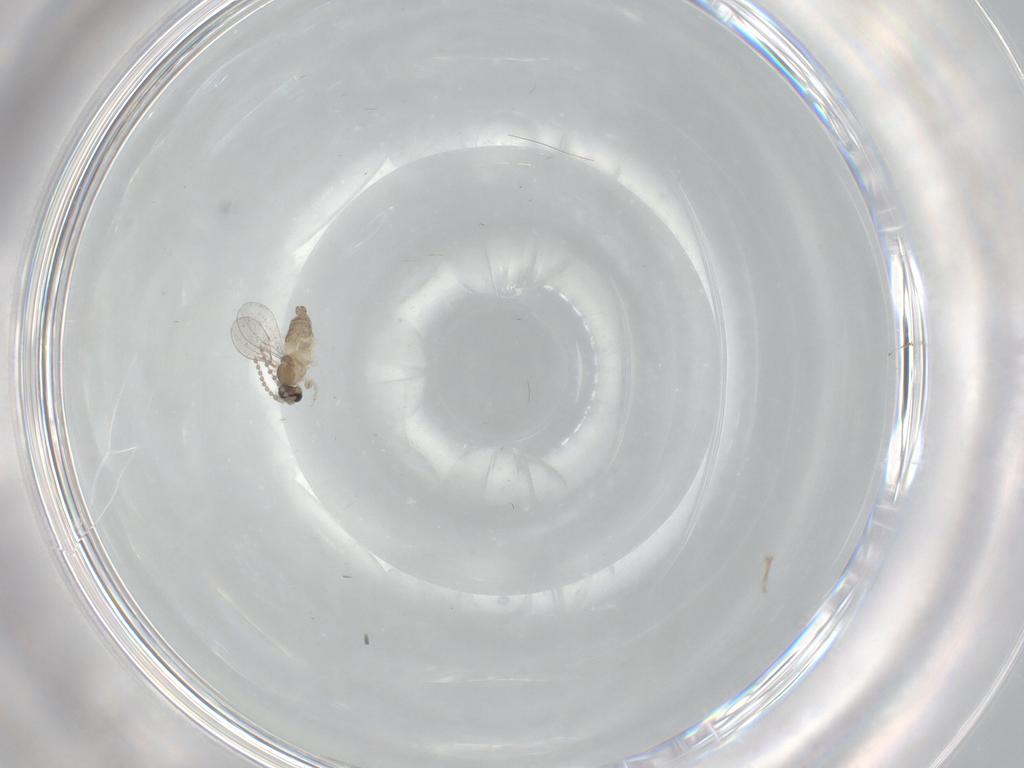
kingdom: Animalia
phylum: Arthropoda
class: Insecta
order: Diptera
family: Cecidomyiidae
